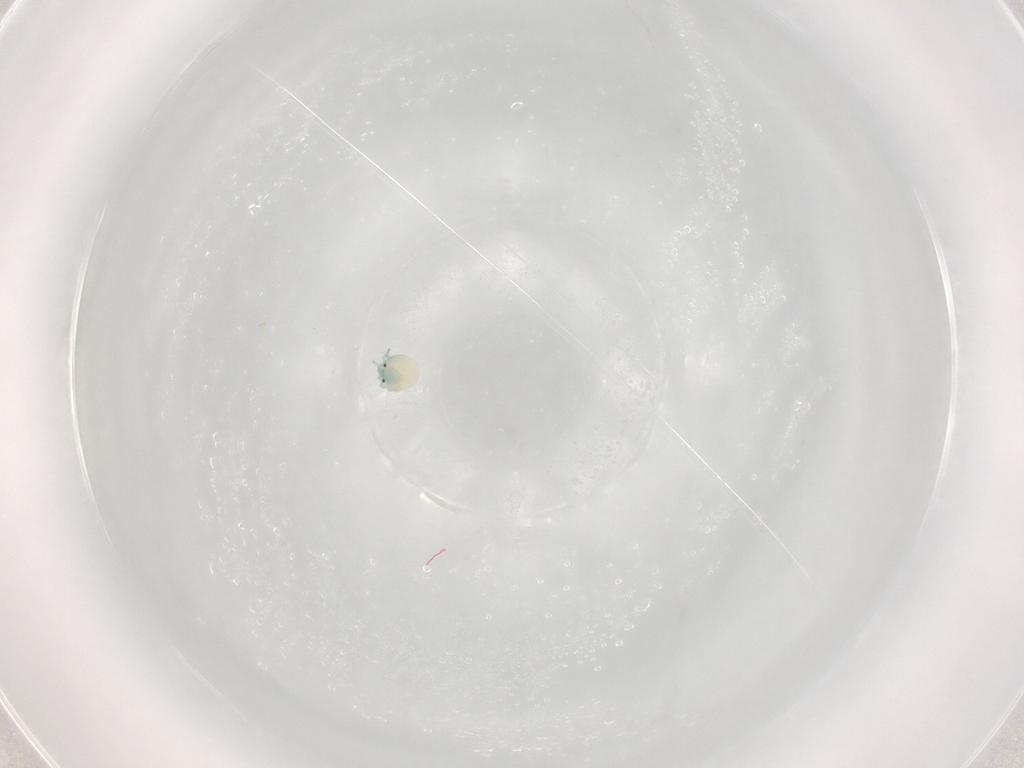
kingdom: Animalia
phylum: Arthropoda
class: Arachnida
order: Trombidiformes
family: Arrenuridae
